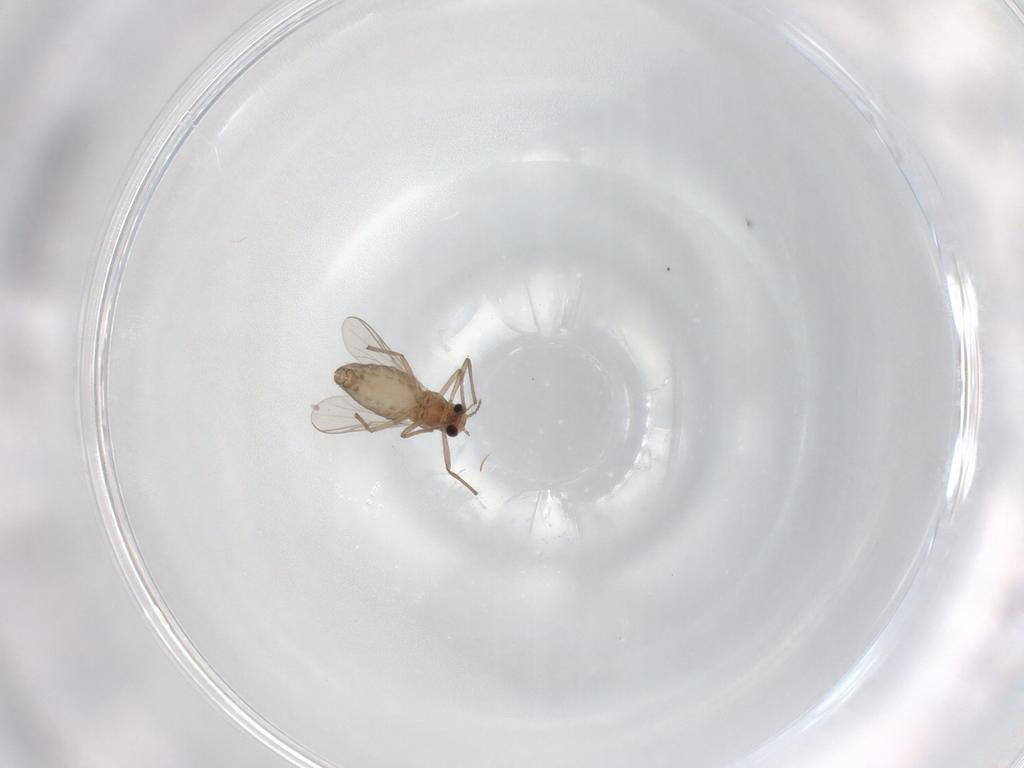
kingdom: Animalia
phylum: Arthropoda
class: Insecta
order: Diptera
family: Chironomidae
